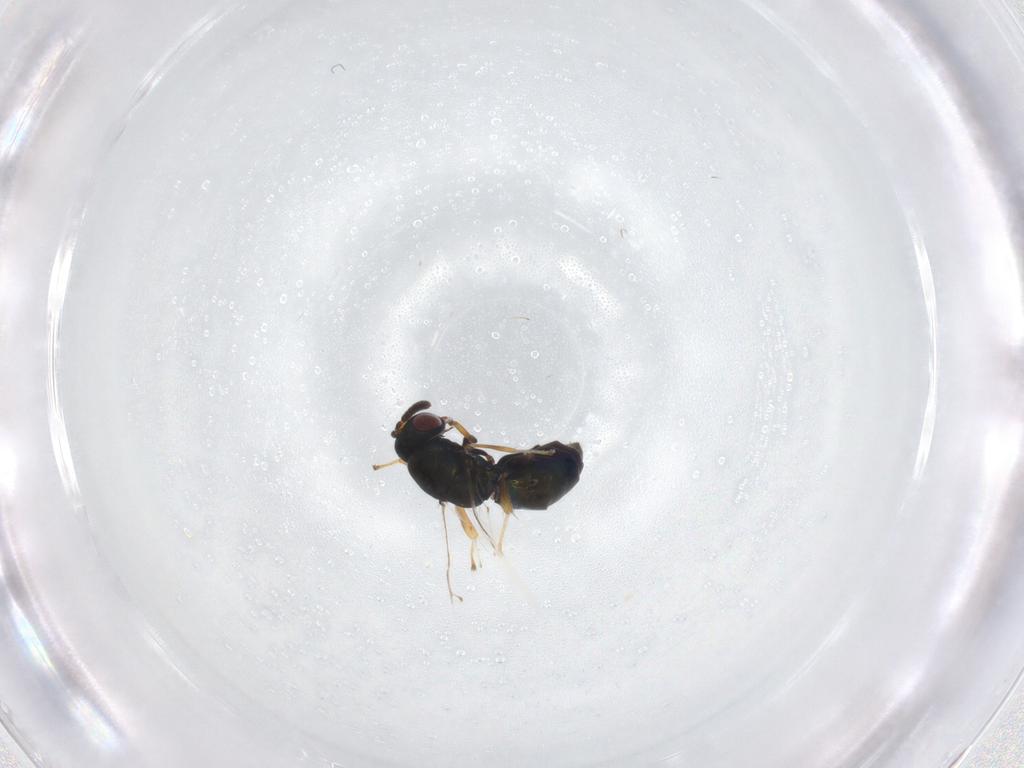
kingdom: Animalia
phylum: Arthropoda
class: Insecta
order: Hymenoptera
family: Pteromalidae
